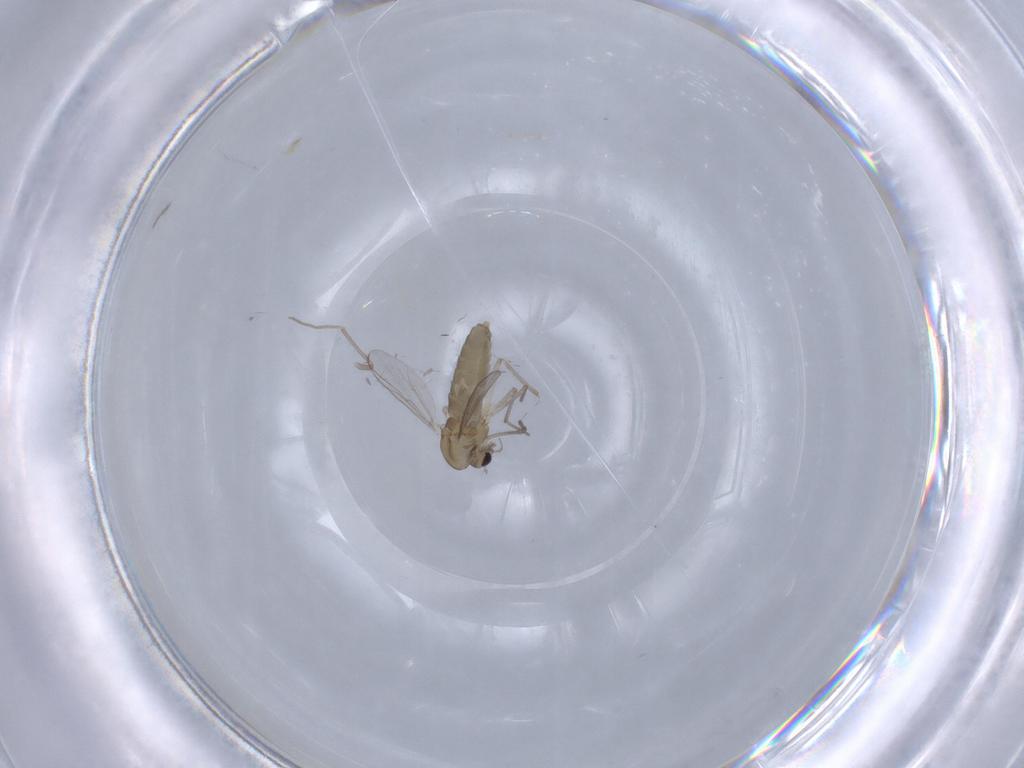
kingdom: Animalia
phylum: Arthropoda
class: Insecta
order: Diptera
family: Chironomidae
